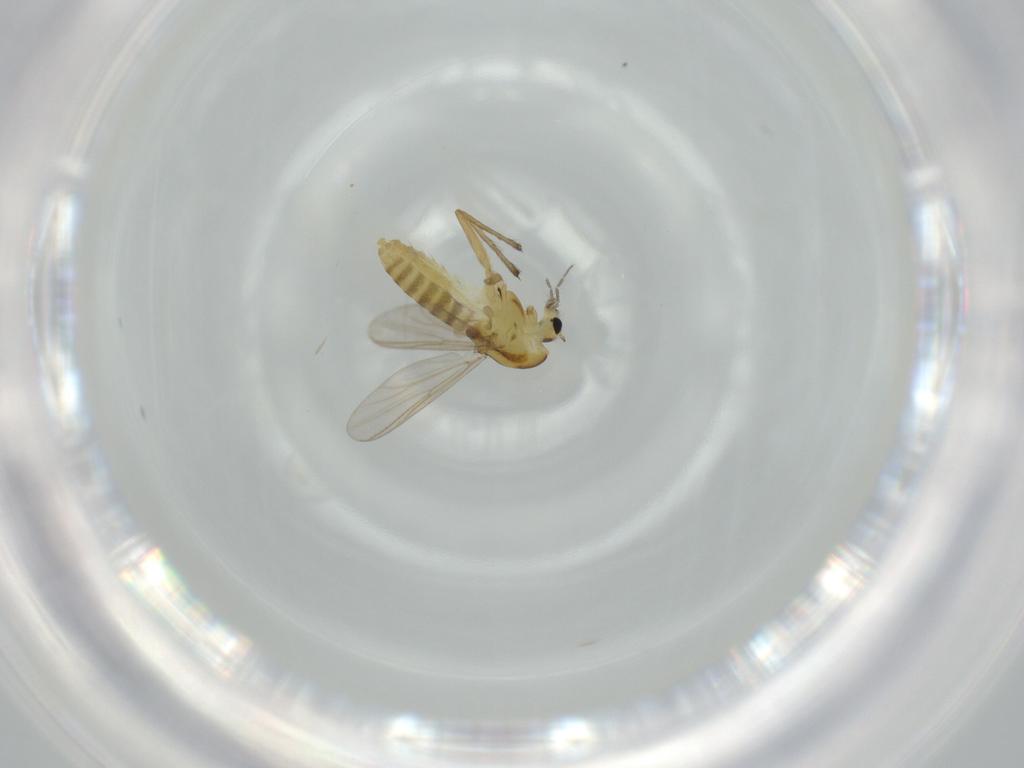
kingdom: Animalia
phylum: Arthropoda
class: Insecta
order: Diptera
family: Chironomidae
